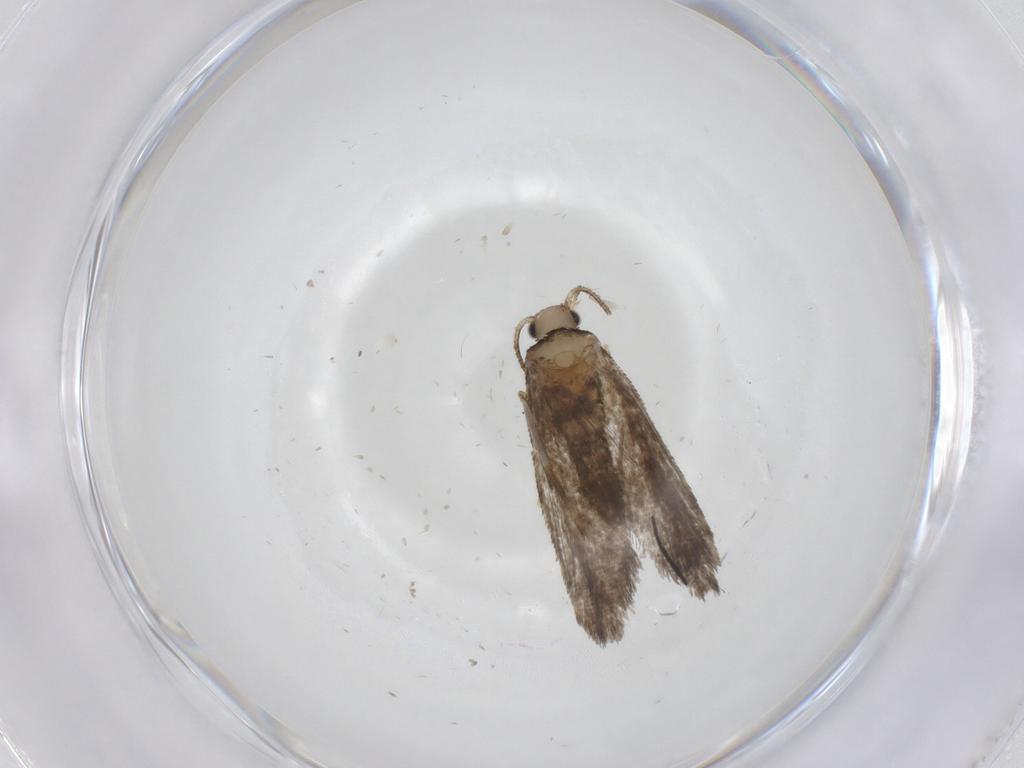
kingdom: Animalia
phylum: Arthropoda
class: Insecta
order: Lepidoptera
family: Psychidae
